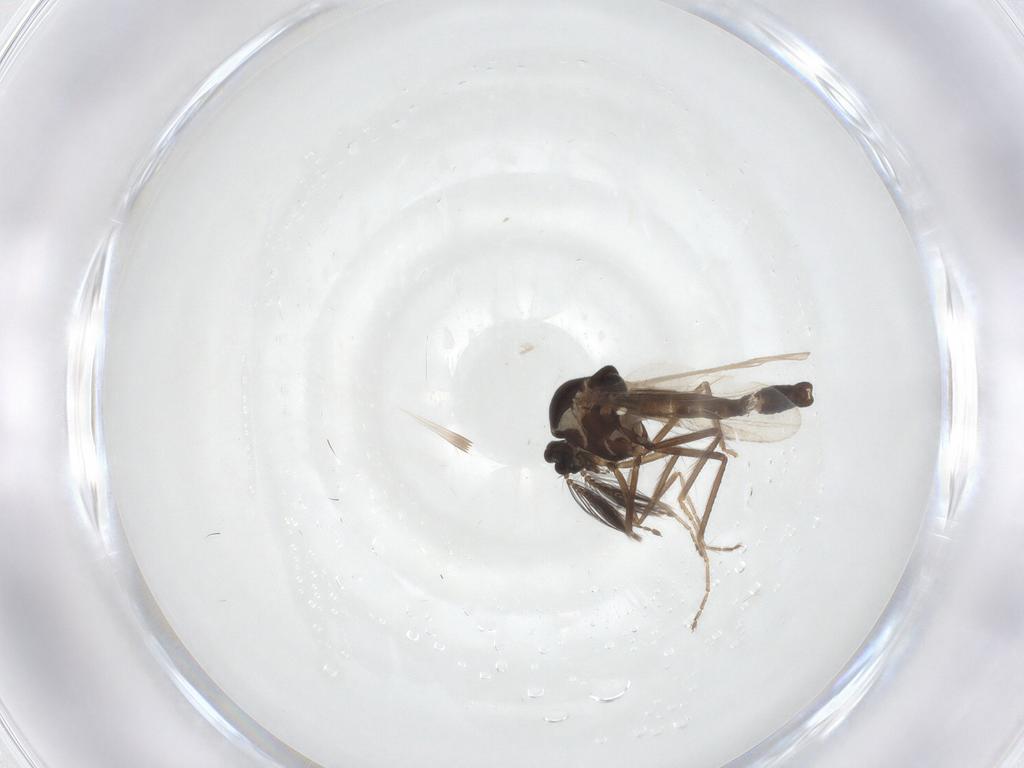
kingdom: Animalia
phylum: Arthropoda
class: Insecta
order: Diptera
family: Ceratopogonidae
